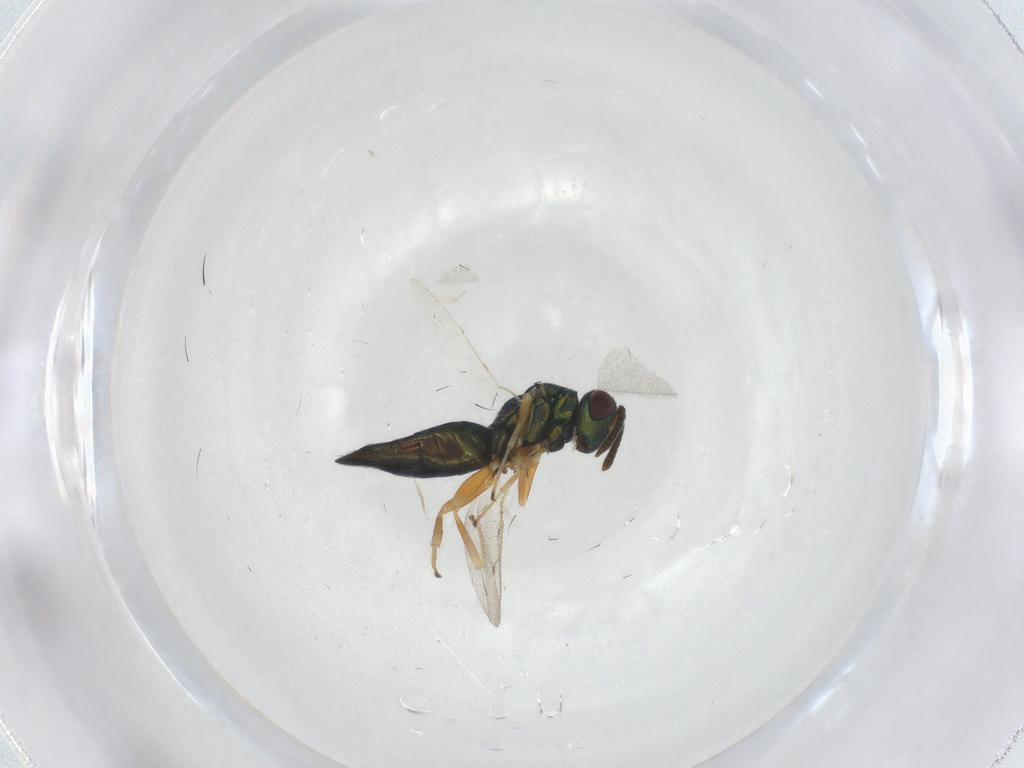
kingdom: Animalia
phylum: Arthropoda
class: Insecta
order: Hymenoptera
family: Pteromalidae
